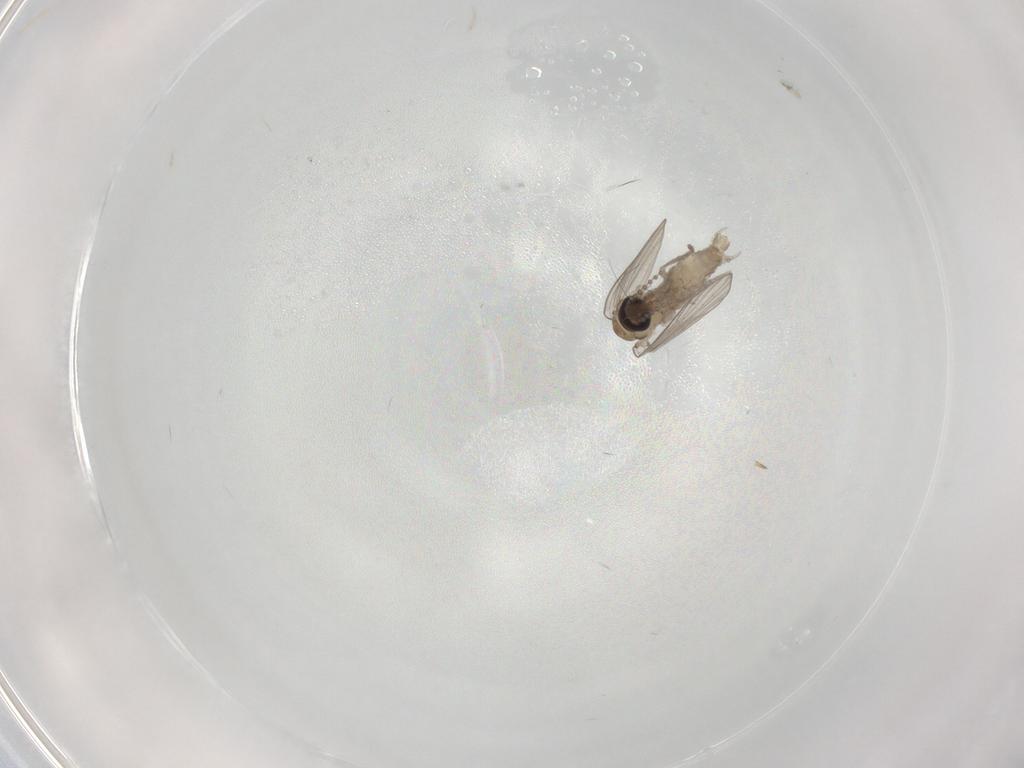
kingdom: Animalia
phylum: Arthropoda
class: Insecta
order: Diptera
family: Psychodidae
